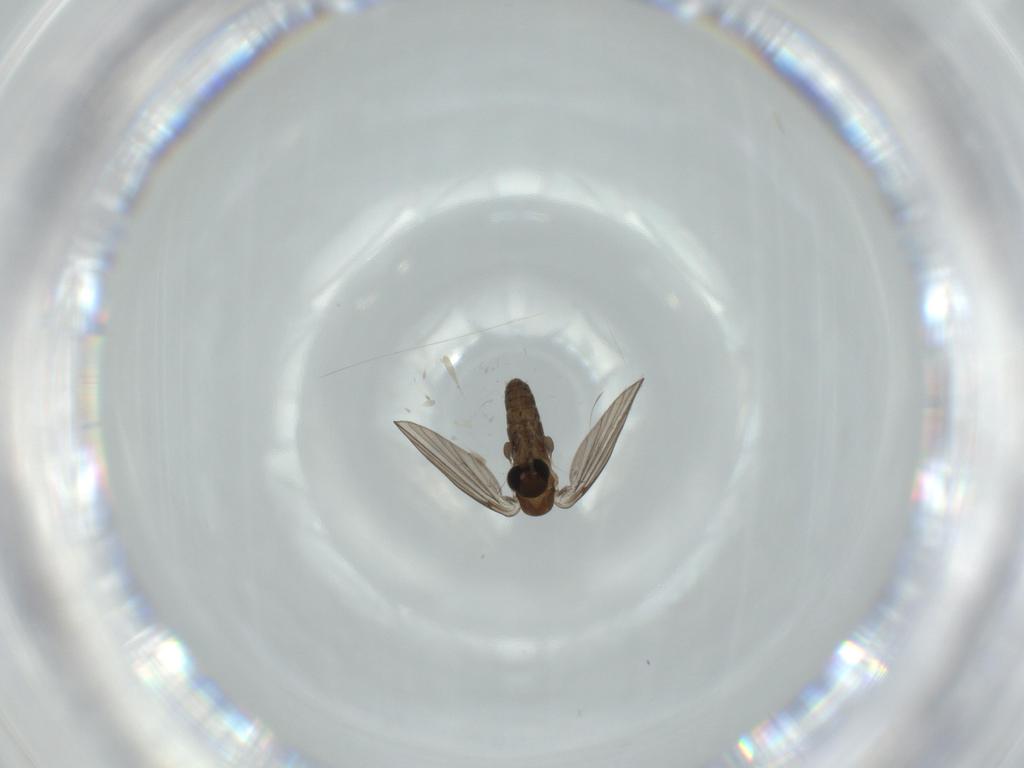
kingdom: Animalia
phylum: Arthropoda
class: Insecta
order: Diptera
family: Psychodidae
